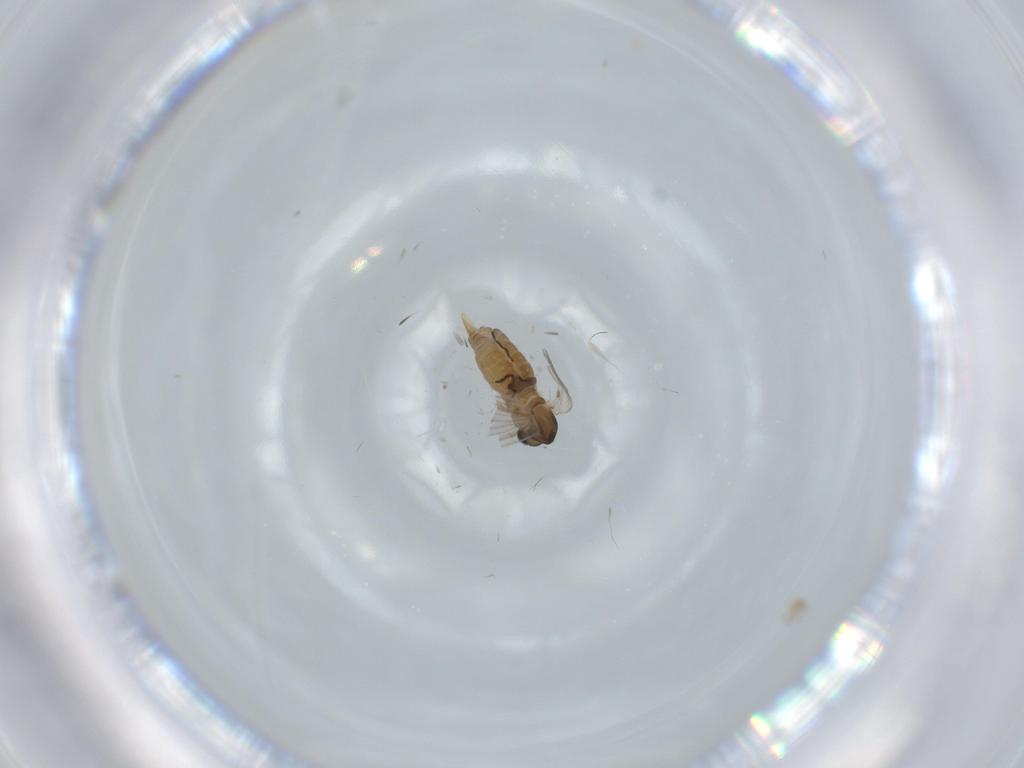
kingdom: Animalia
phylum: Arthropoda
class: Insecta
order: Diptera
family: Psychodidae
